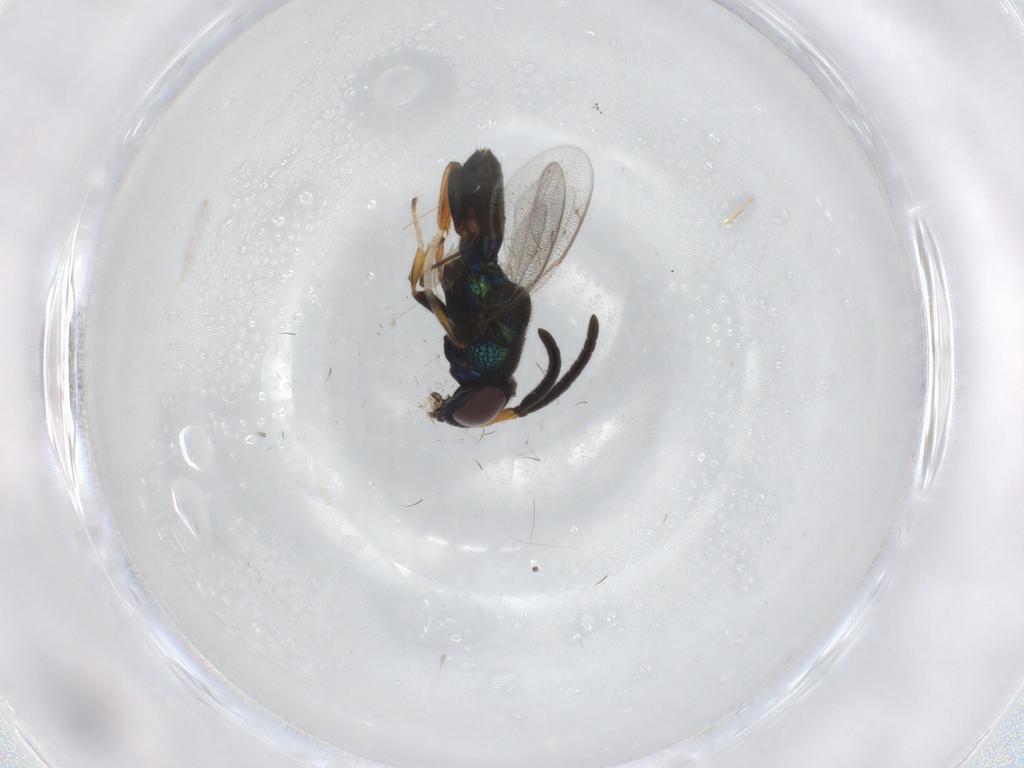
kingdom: Animalia
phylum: Arthropoda
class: Insecta
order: Hymenoptera
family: Eupelmidae
